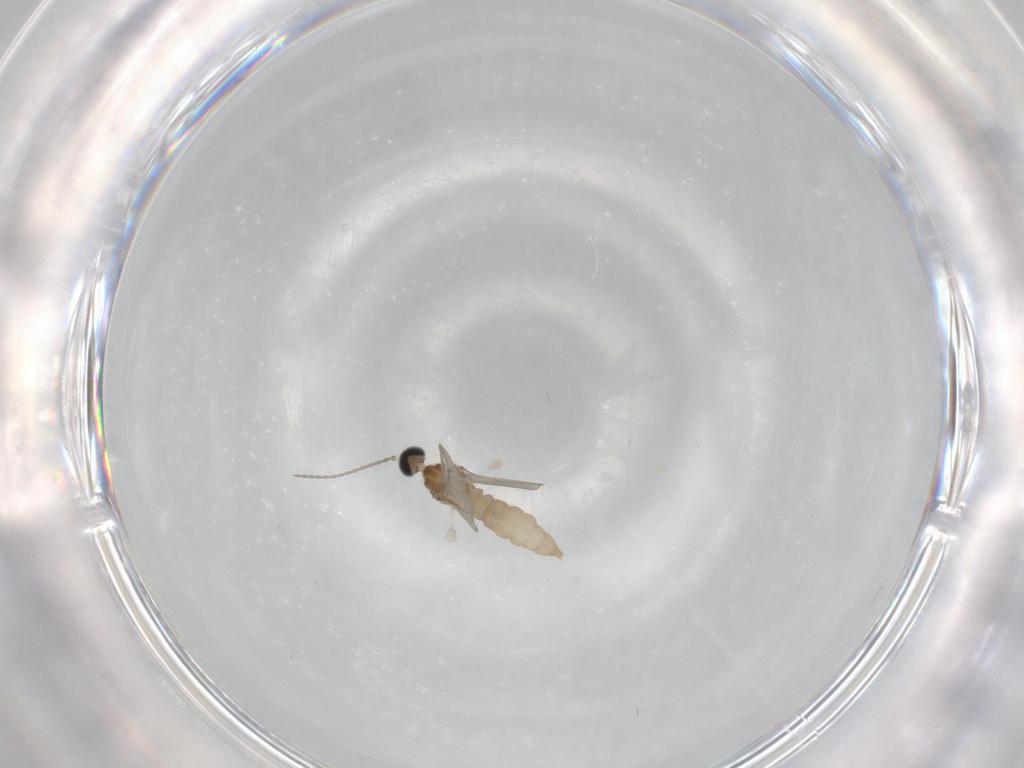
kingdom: Animalia
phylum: Arthropoda
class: Insecta
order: Diptera
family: Cecidomyiidae
